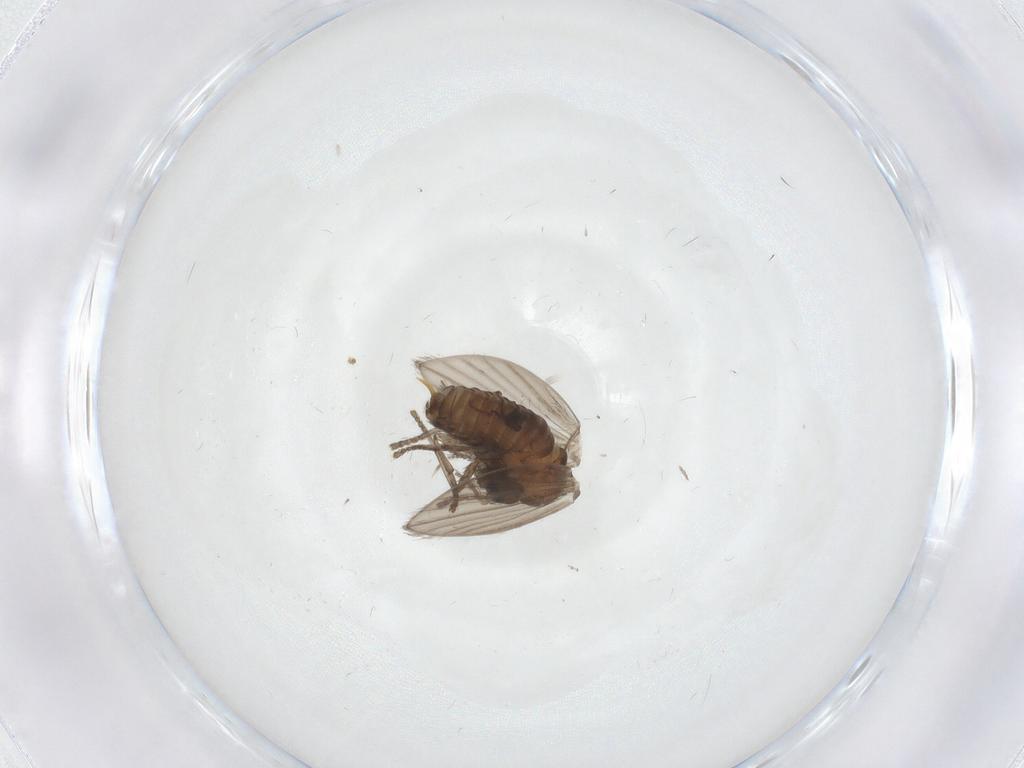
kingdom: Animalia
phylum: Arthropoda
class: Insecta
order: Diptera
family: Psychodidae
